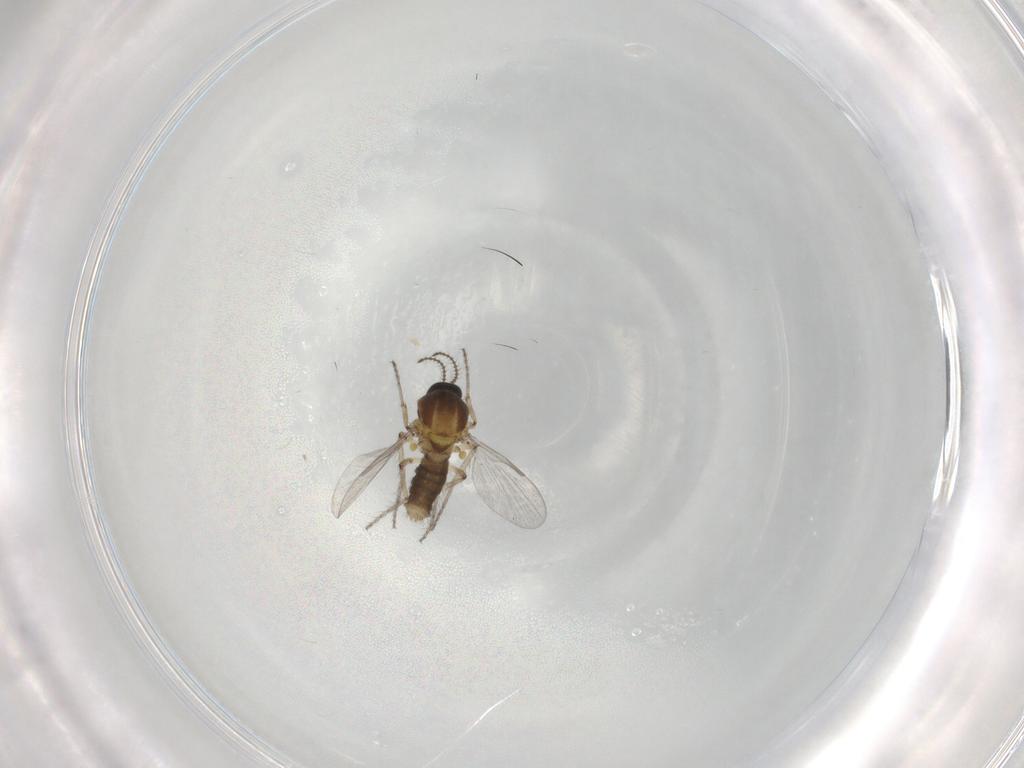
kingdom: Animalia
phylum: Arthropoda
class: Insecta
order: Diptera
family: Ceratopogonidae
